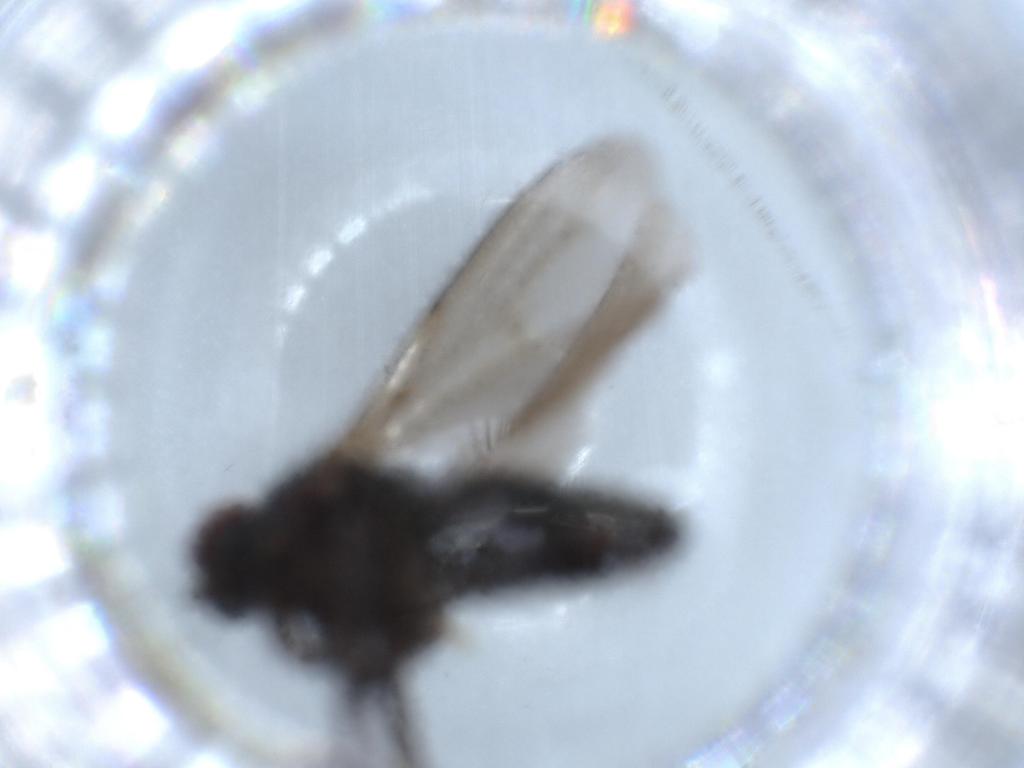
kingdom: Animalia
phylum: Arthropoda
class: Insecta
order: Diptera
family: Dolichopodidae
